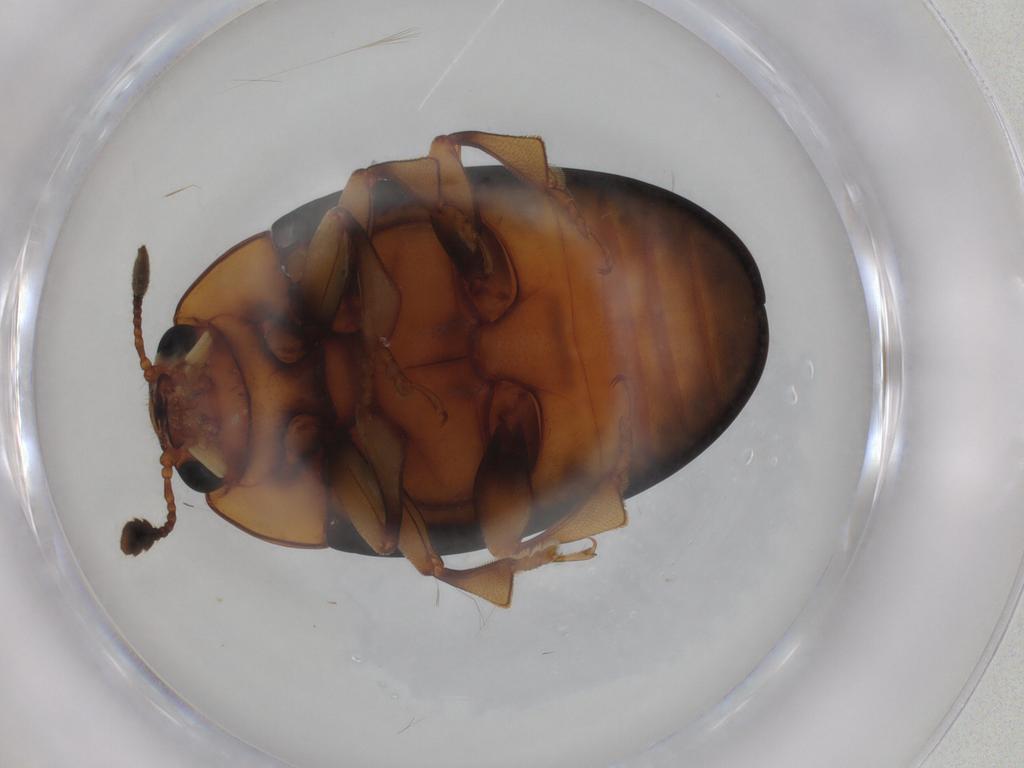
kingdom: Animalia
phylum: Arthropoda
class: Insecta
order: Coleoptera
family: Erotylidae
